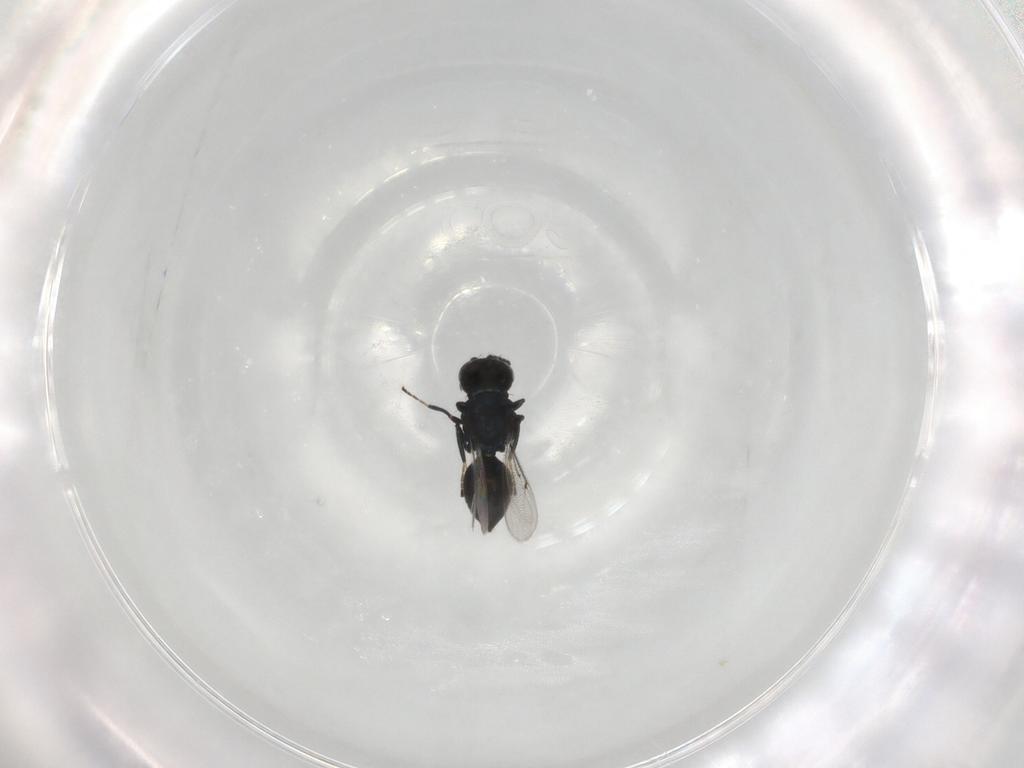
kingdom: Animalia
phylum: Arthropoda
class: Insecta
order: Hymenoptera
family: Eulophidae
